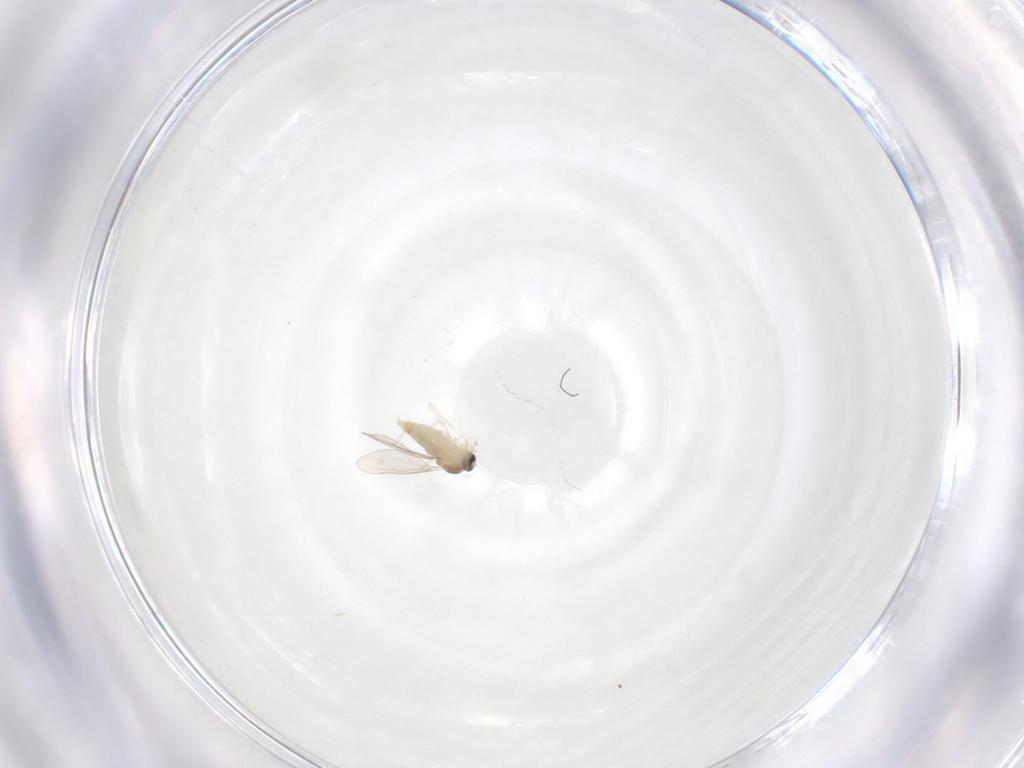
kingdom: Animalia
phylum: Arthropoda
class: Insecta
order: Diptera
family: Cecidomyiidae
